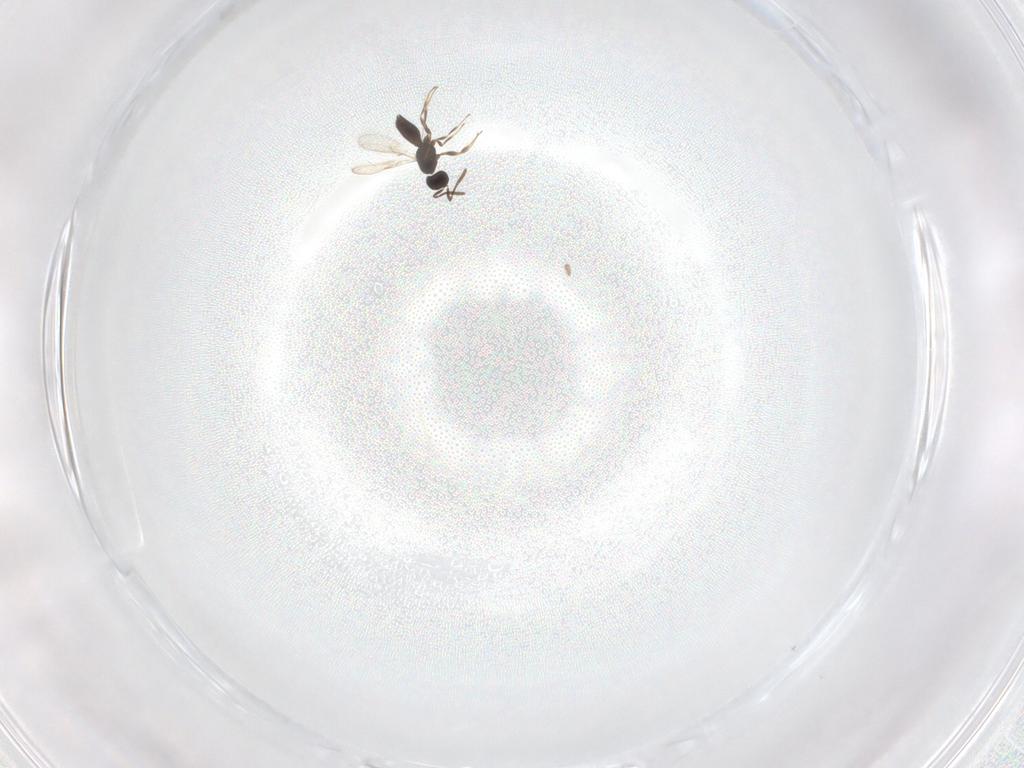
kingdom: Animalia
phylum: Arthropoda
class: Insecta
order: Hymenoptera
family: Scelionidae
